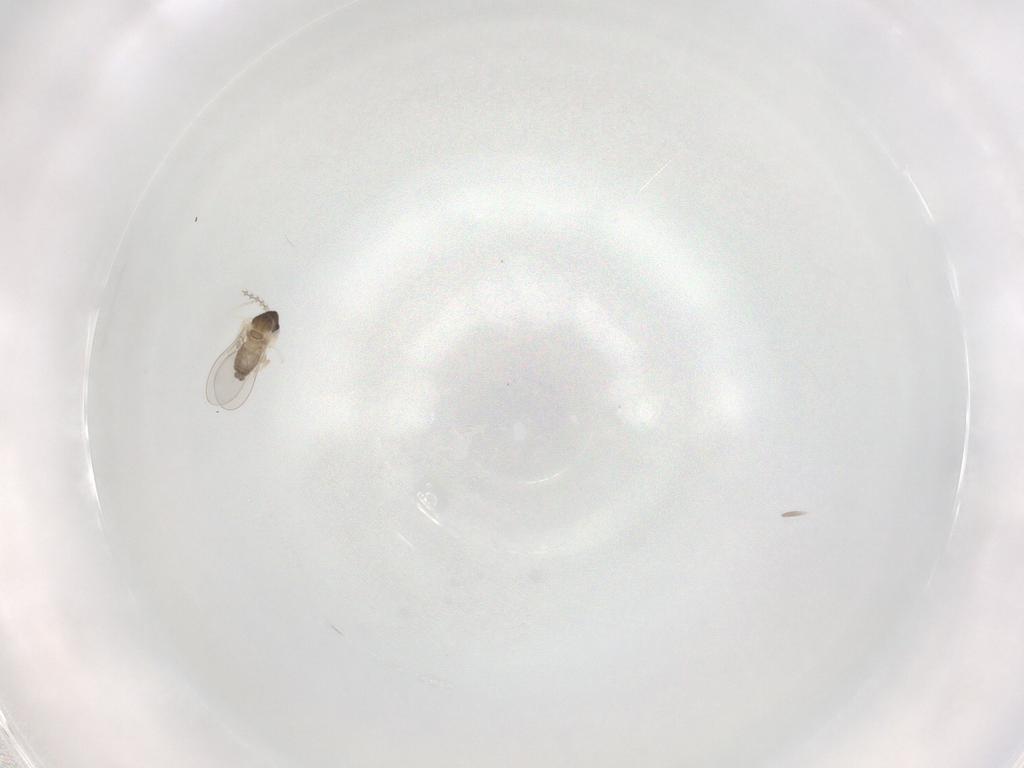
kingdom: Animalia
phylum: Arthropoda
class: Insecta
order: Diptera
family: Cecidomyiidae
